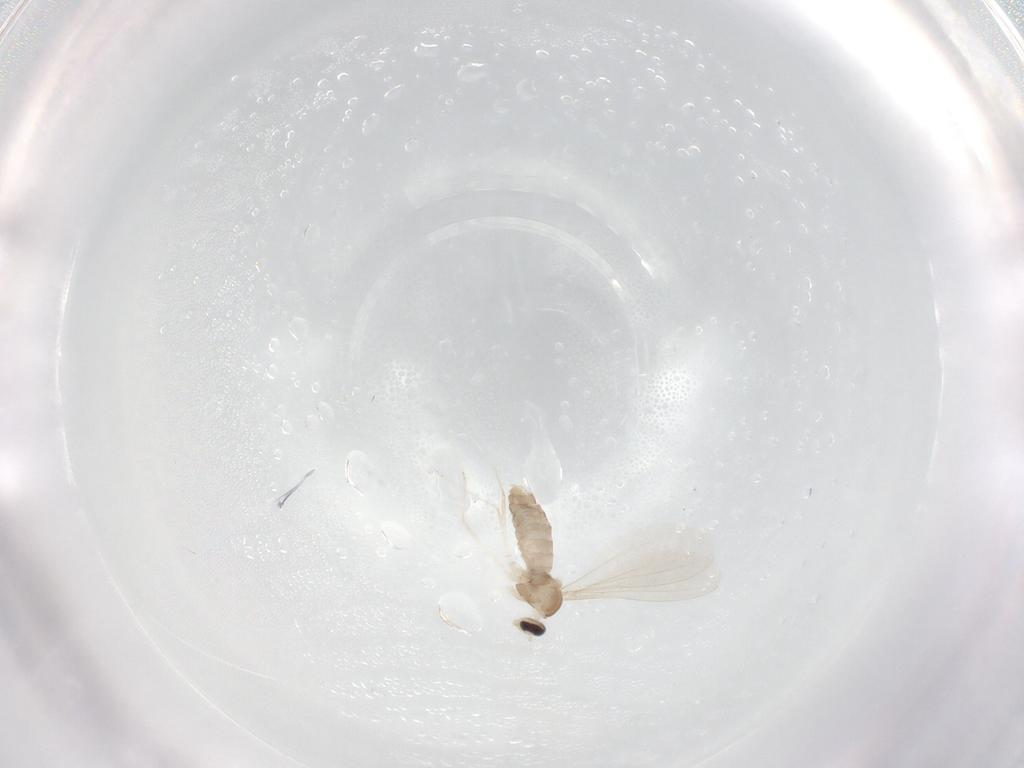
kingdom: Animalia
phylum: Arthropoda
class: Insecta
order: Diptera
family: Cecidomyiidae
